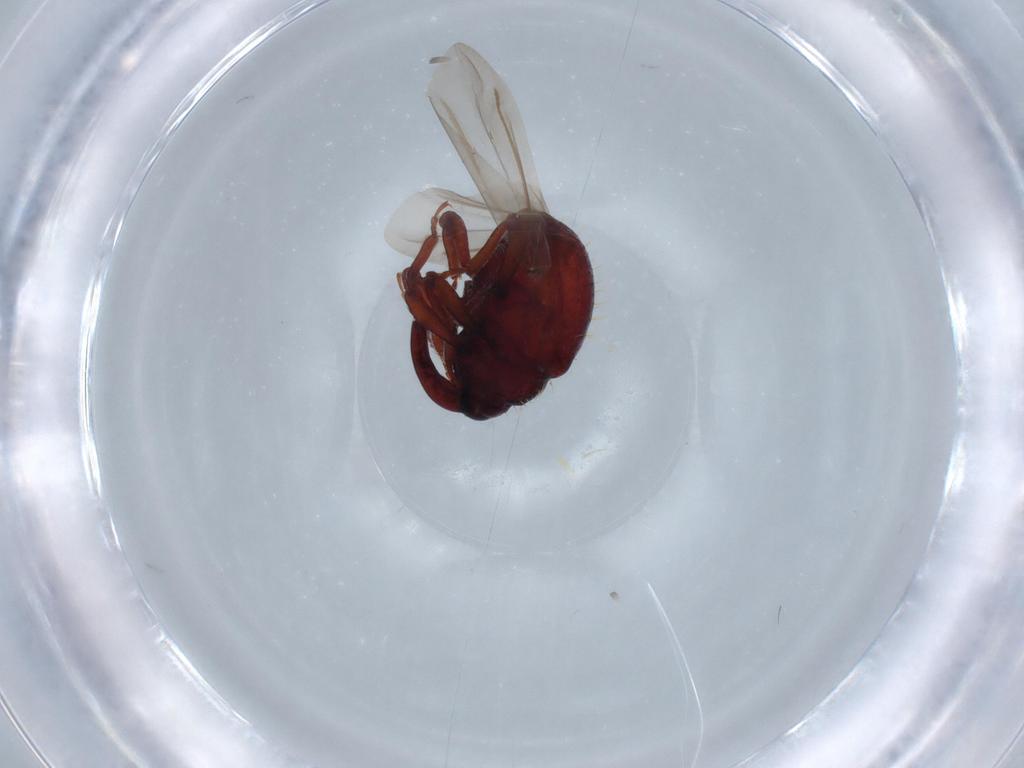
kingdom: Animalia
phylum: Arthropoda
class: Insecta
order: Coleoptera
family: Curculionidae
